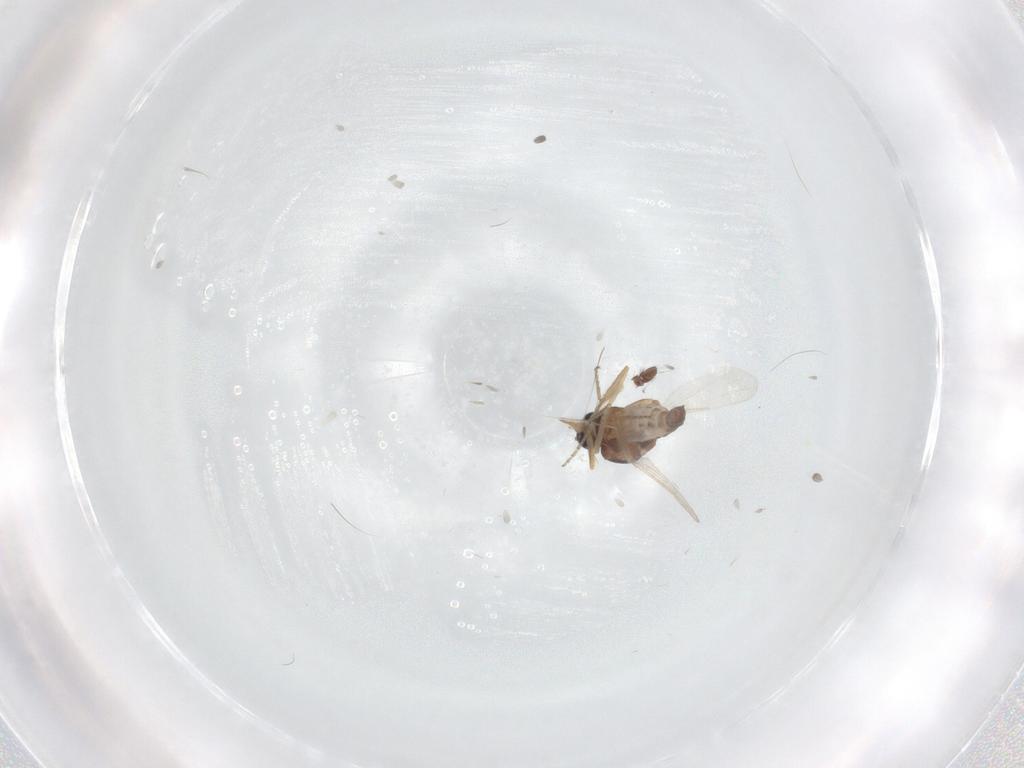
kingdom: Animalia
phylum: Arthropoda
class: Insecta
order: Diptera
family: Ceratopogonidae
